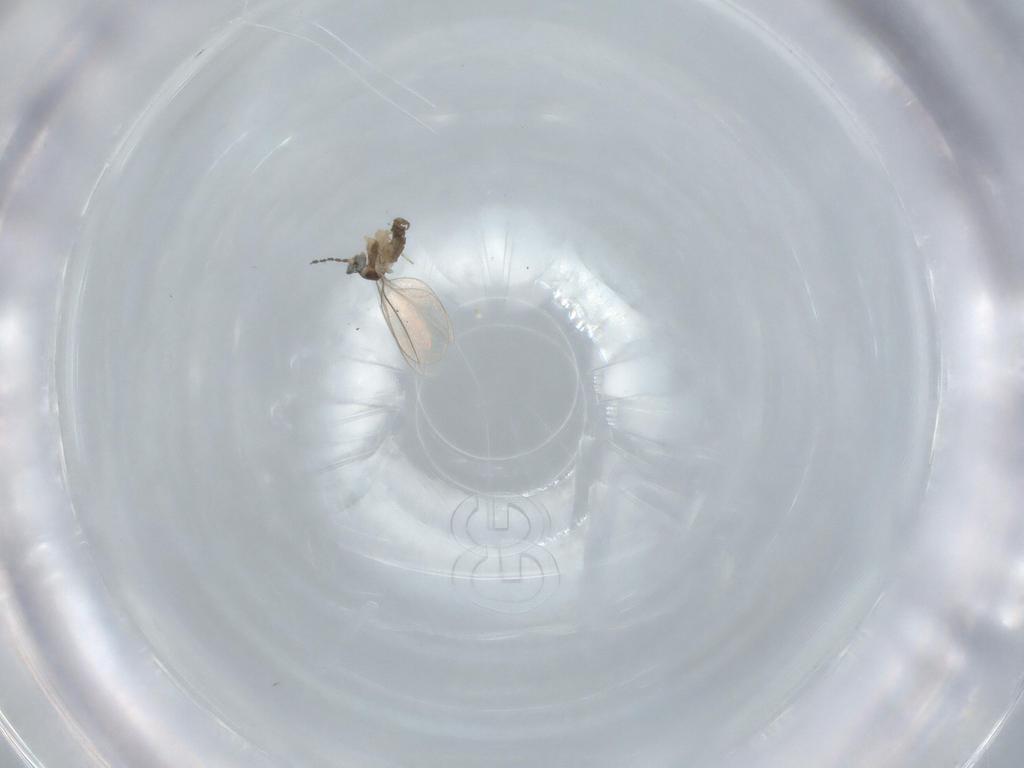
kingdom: Animalia
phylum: Arthropoda
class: Insecta
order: Diptera
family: Cecidomyiidae
